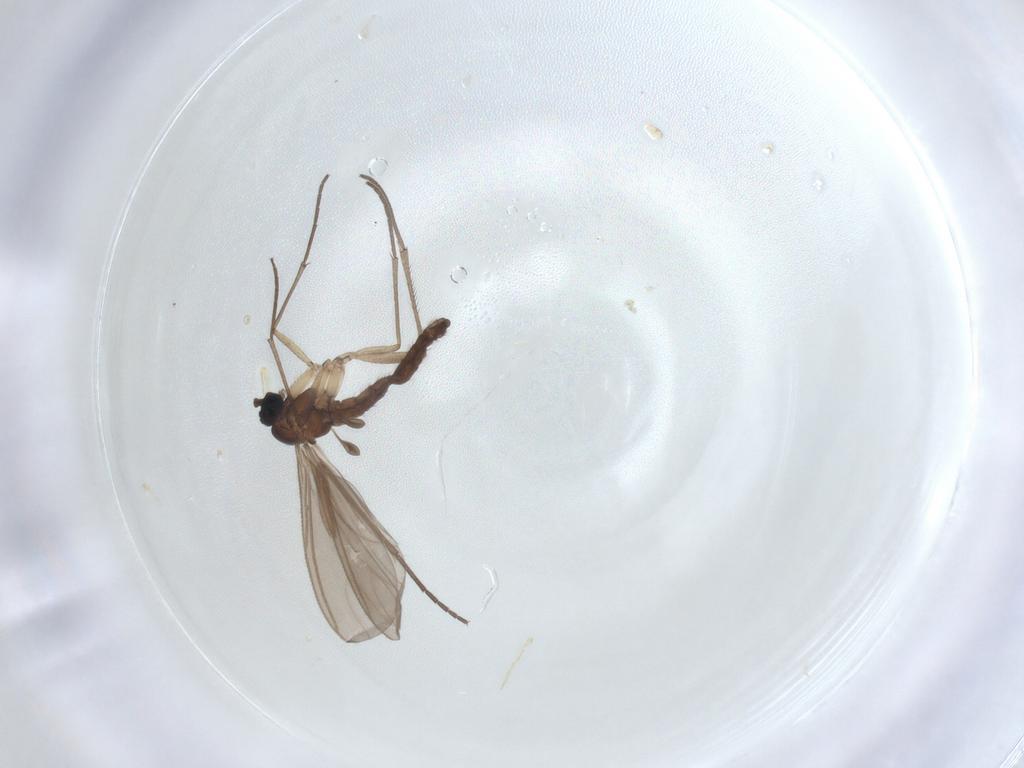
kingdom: Animalia
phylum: Arthropoda
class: Insecta
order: Diptera
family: Sciaridae
